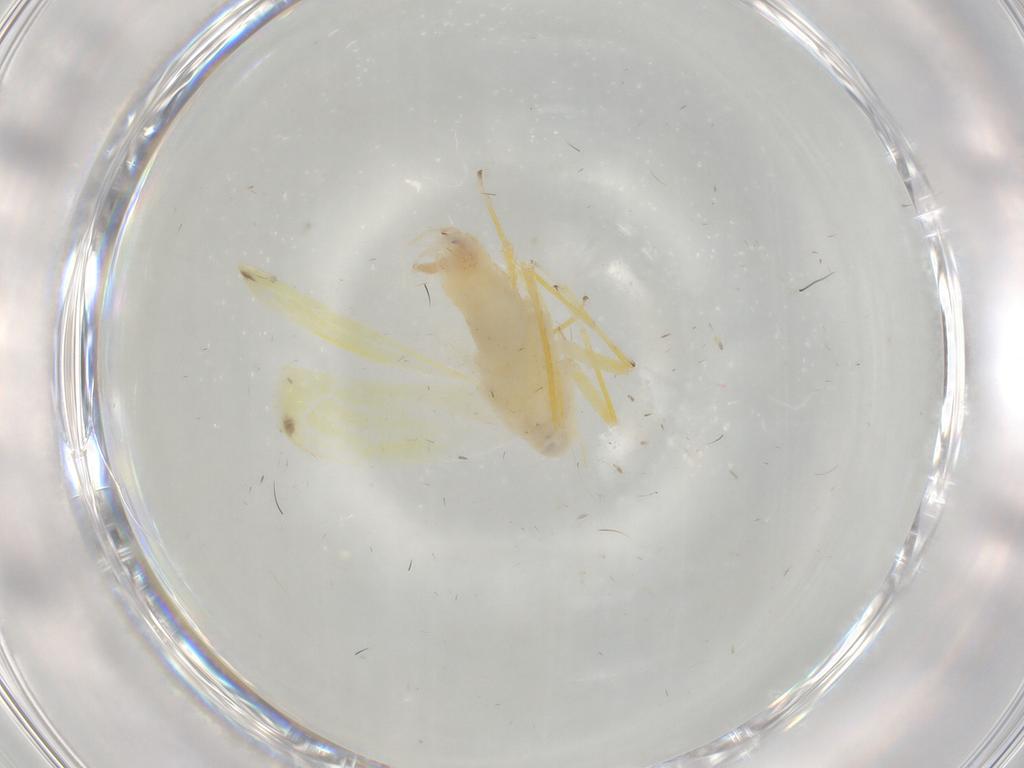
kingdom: Animalia
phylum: Arthropoda
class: Insecta
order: Hemiptera
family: Cicadellidae
